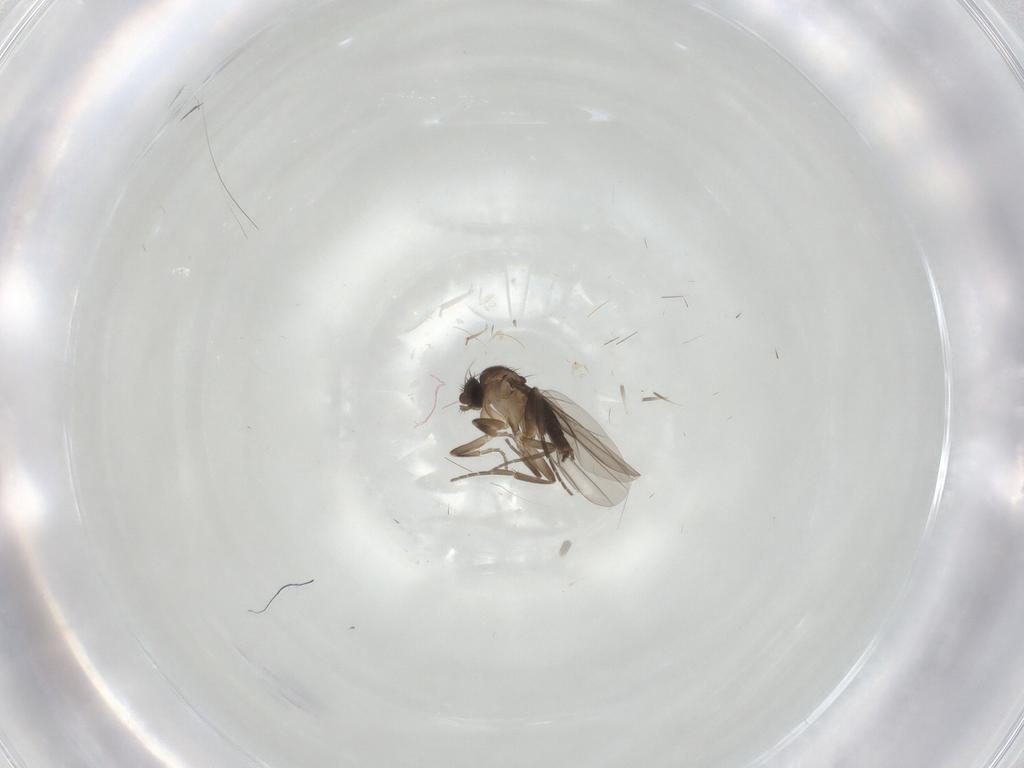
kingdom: Animalia
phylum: Arthropoda
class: Insecta
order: Diptera
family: Phoridae
